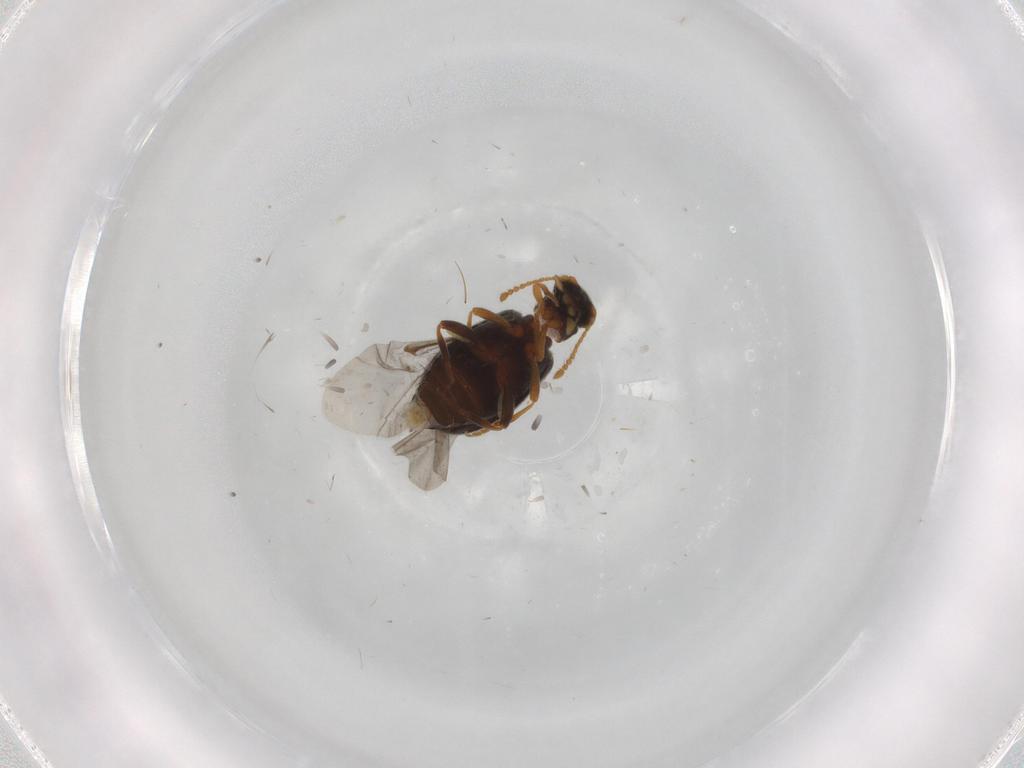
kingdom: Animalia
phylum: Arthropoda
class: Insecta
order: Coleoptera
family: Aderidae
